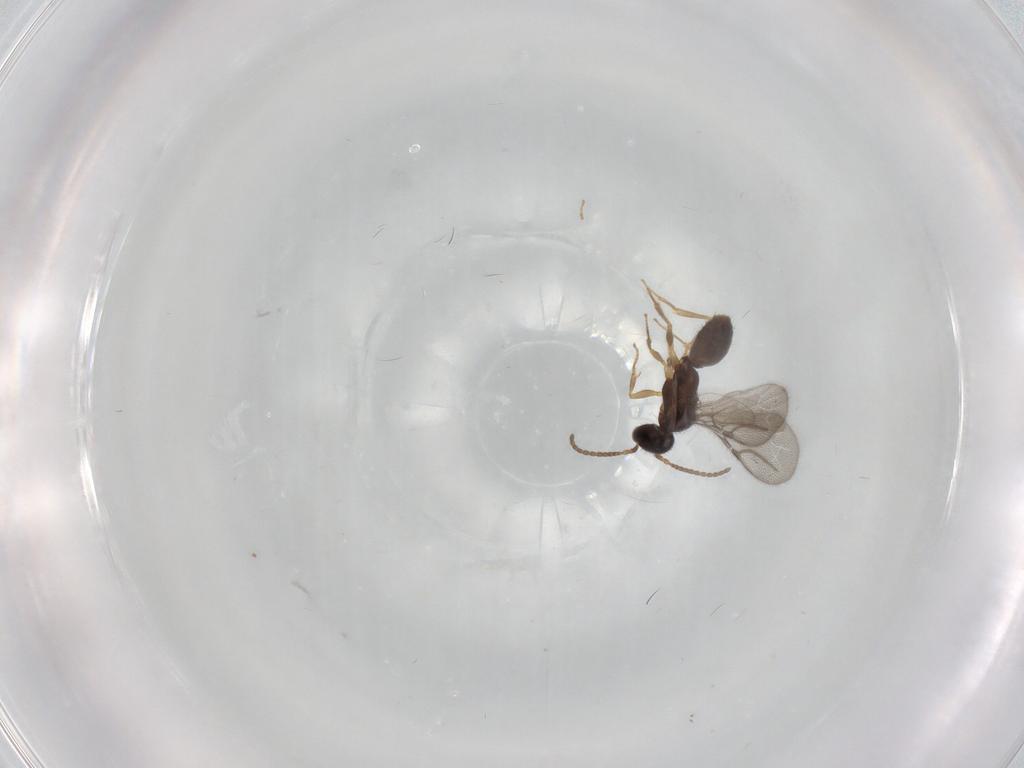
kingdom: Animalia
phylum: Arthropoda
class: Insecta
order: Hymenoptera
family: Bethylidae
